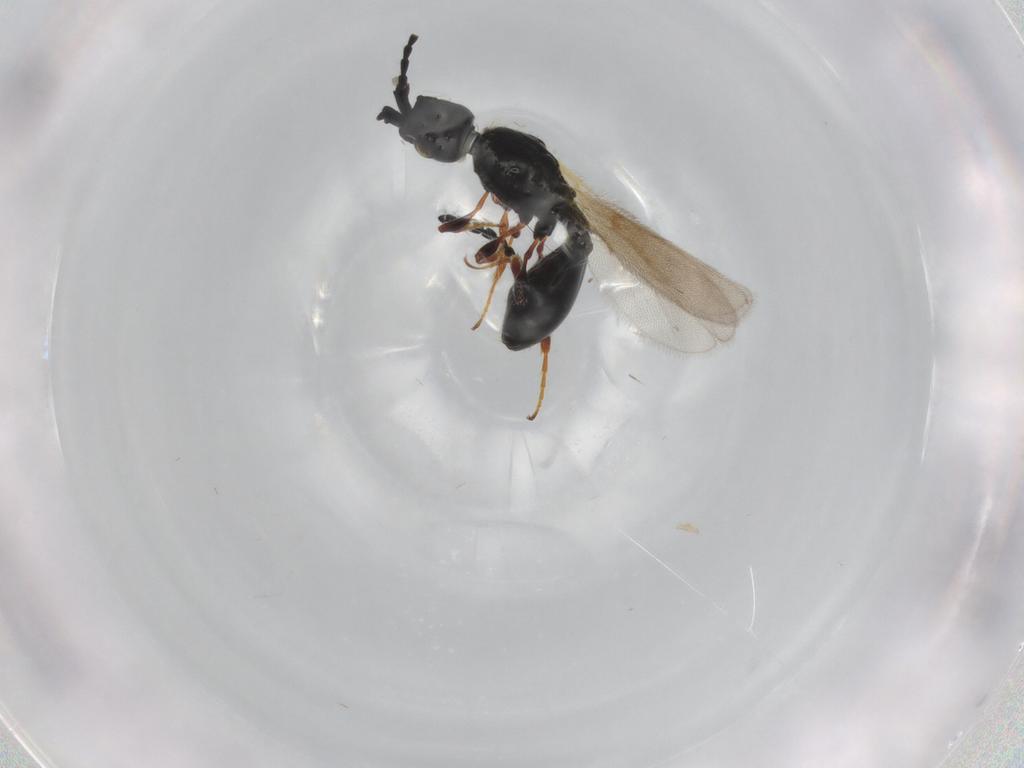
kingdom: Animalia
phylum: Arthropoda
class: Insecta
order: Hymenoptera
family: Diapriidae
